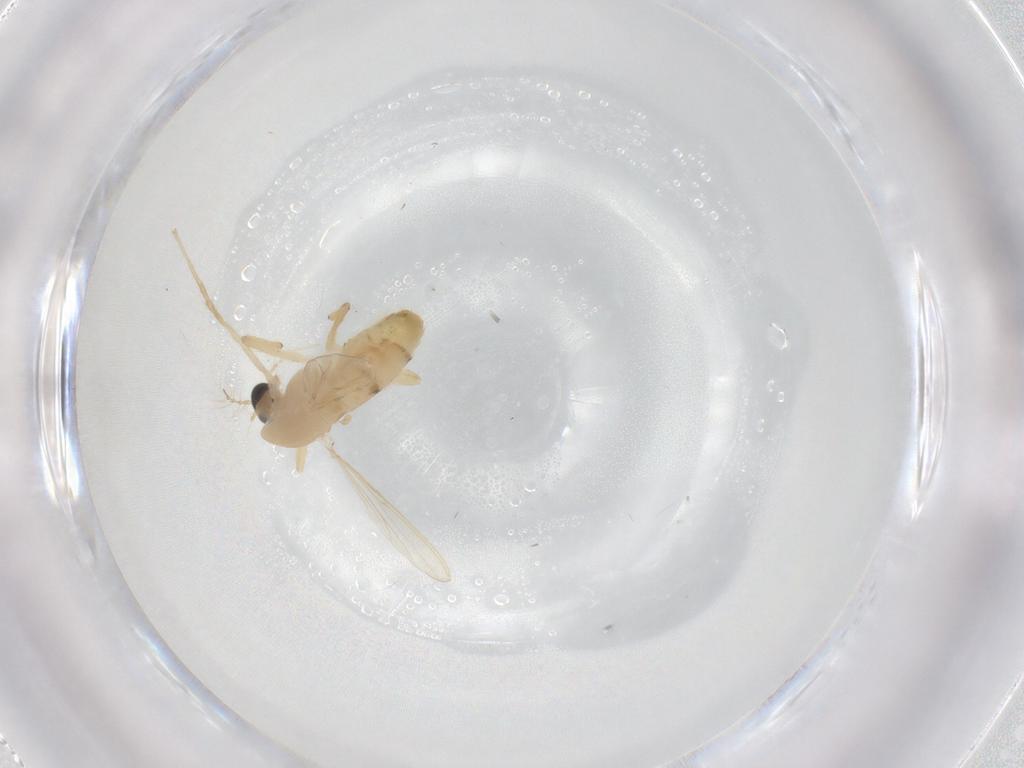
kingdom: Animalia
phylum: Arthropoda
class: Insecta
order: Diptera
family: Chironomidae
